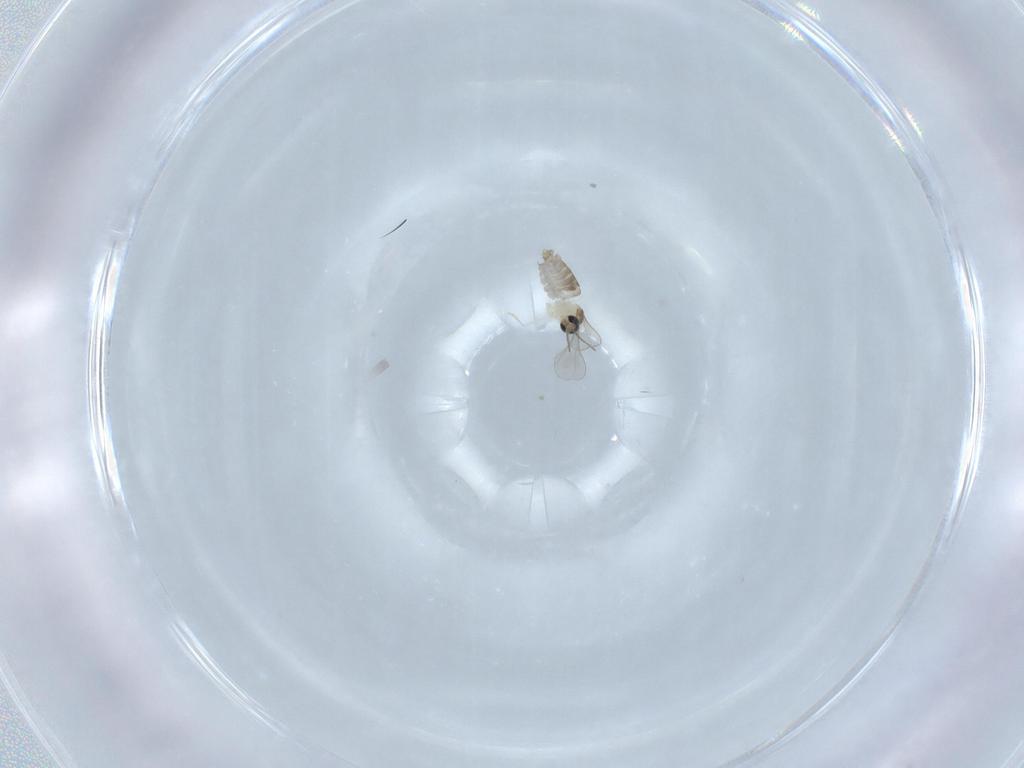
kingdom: Animalia
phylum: Arthropoda
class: Insecta
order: Diptera
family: Cecidomyiidae
